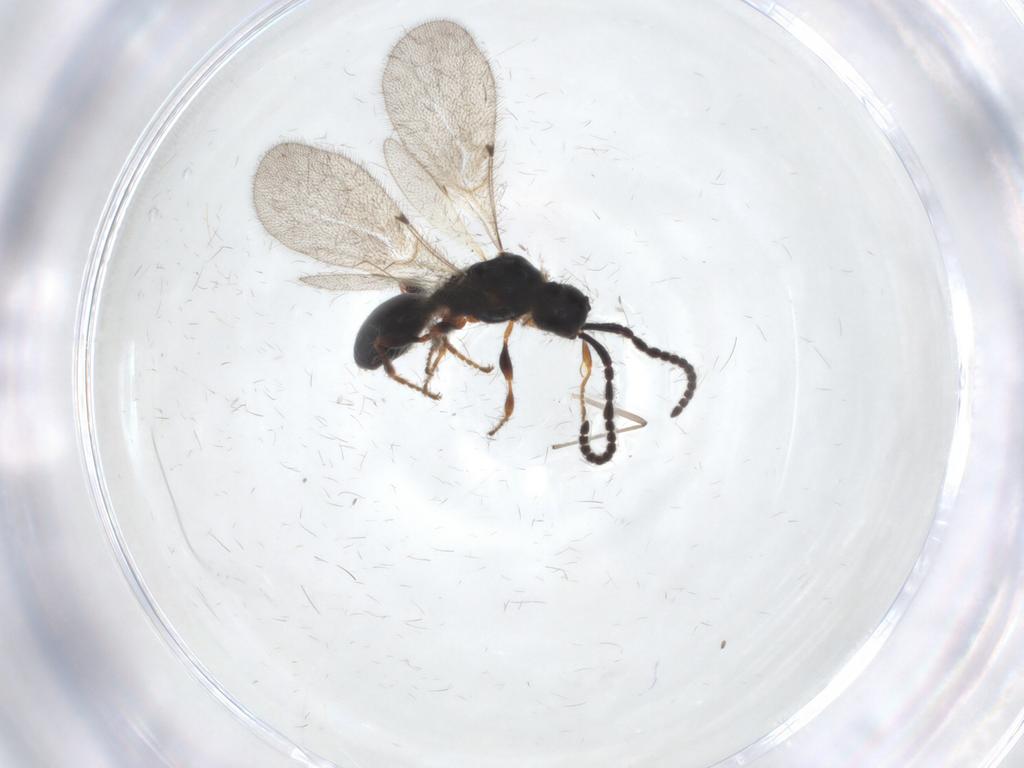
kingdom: Animalia
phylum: Arthropoda
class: Insecta
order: Hymenoptera
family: Diapriidae
